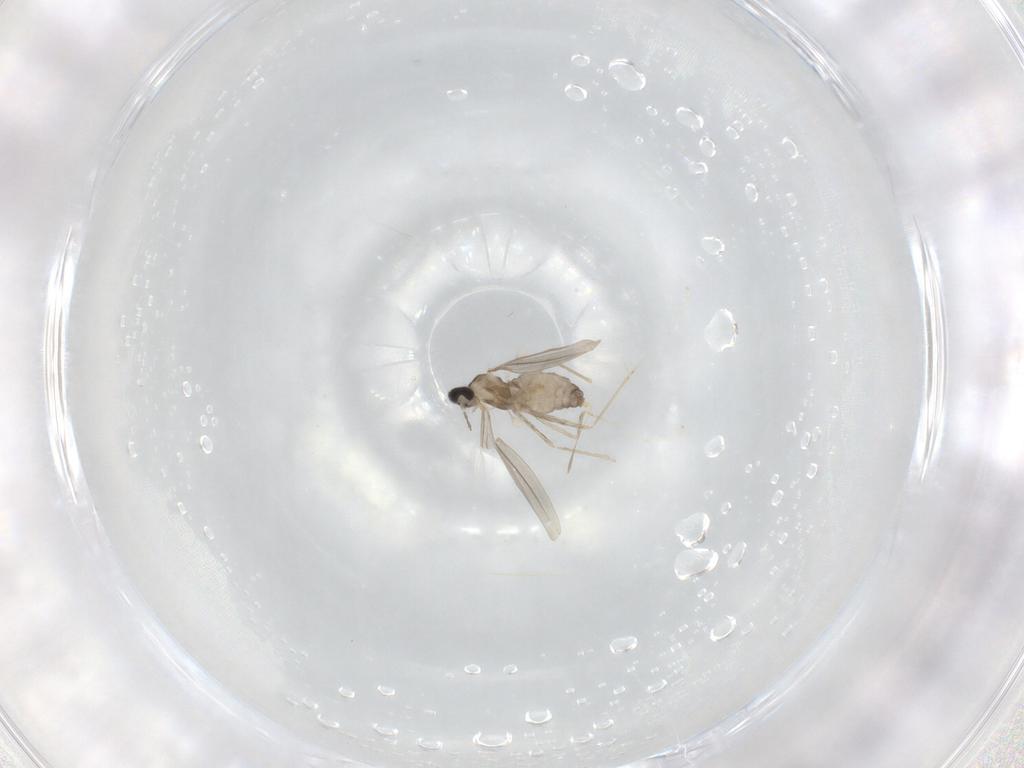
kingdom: Animalia
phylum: Arthropoda
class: Insecta
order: Diptera
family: Cecidomyiidae
